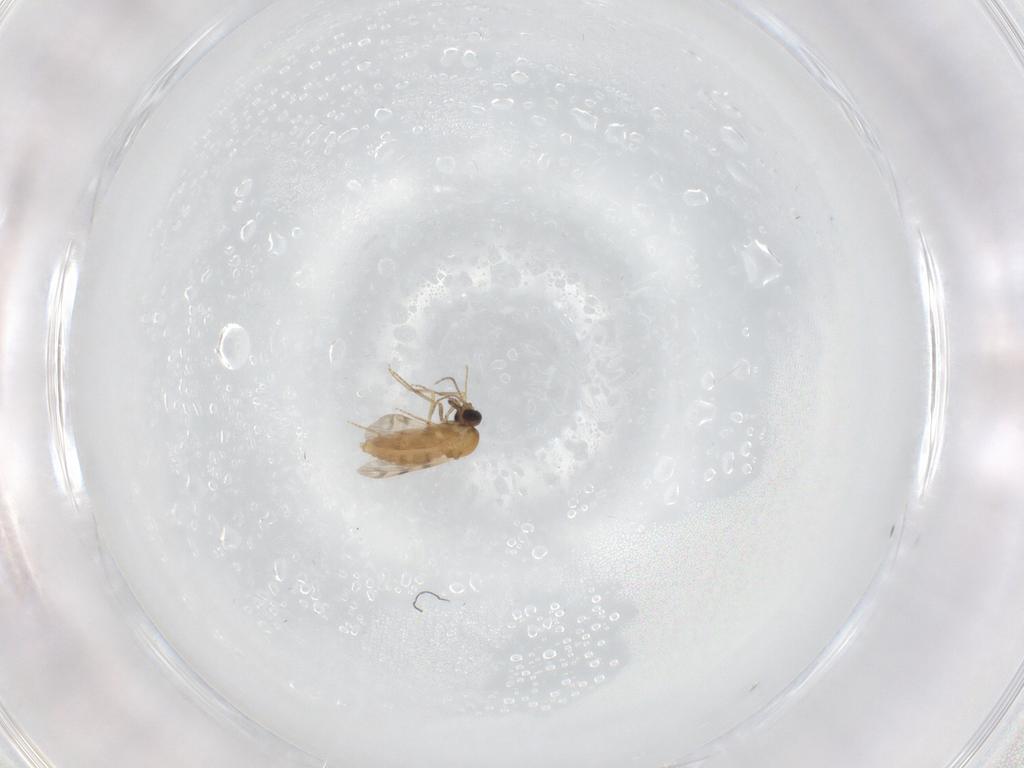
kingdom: Animalia
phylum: Arthropoda
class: Insecta
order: Diptera
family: Ceratopogonidae
